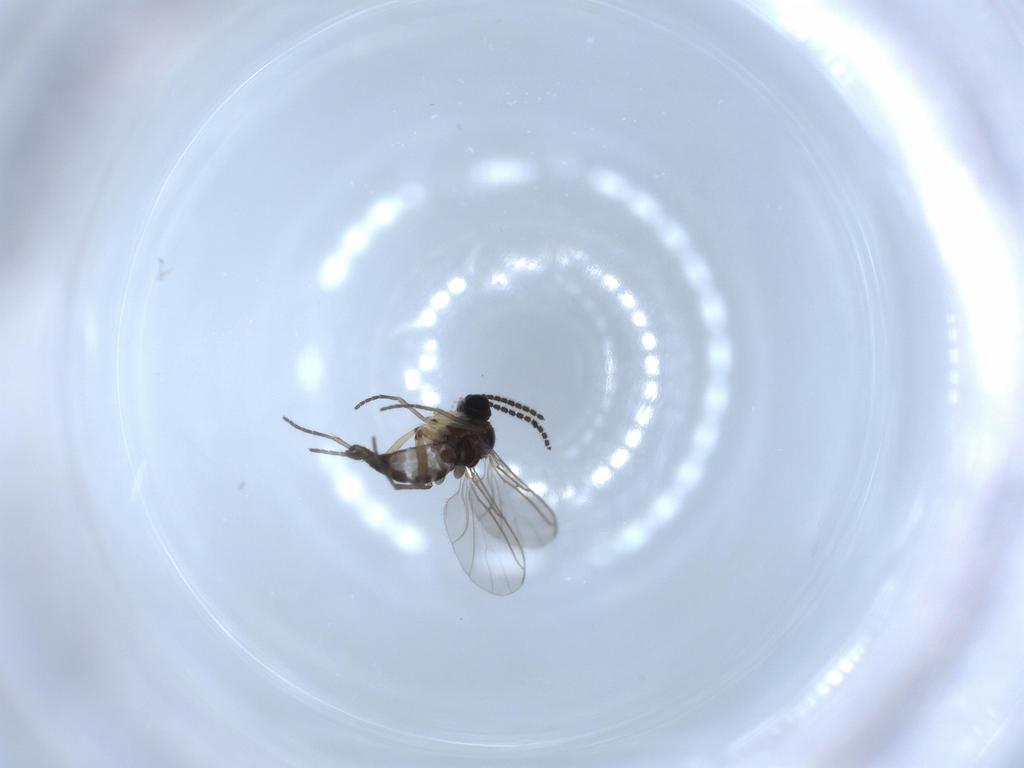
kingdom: Animalia
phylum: Arthropoda
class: Insecta
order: Diptera
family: Sciaridae
